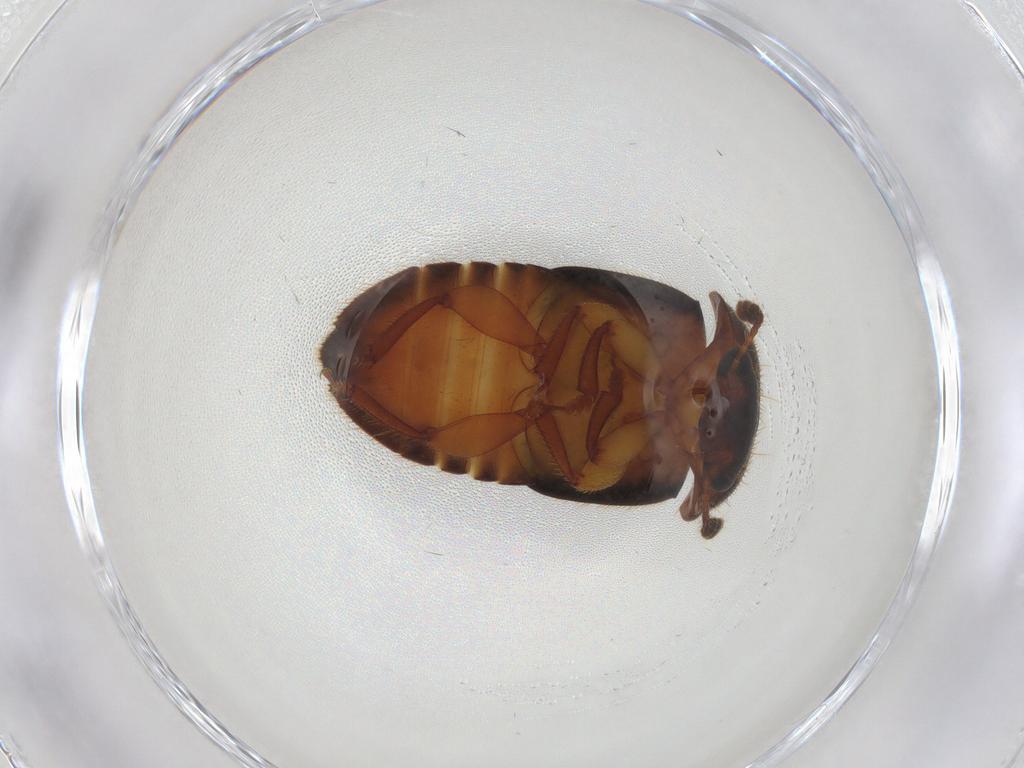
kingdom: Animalia
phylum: Arthropoda
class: Insecta
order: Coleoptera
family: Nitidulidae
